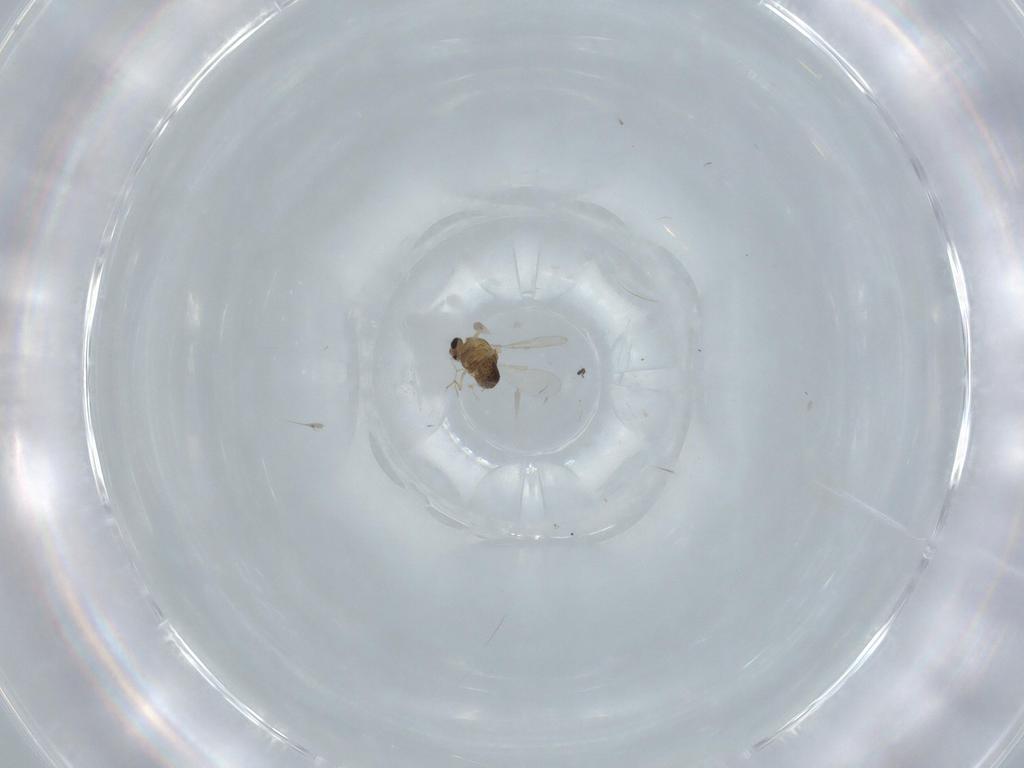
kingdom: Animalia
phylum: Arthropoda
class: Insecta
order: Diptera
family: Chironomidae
